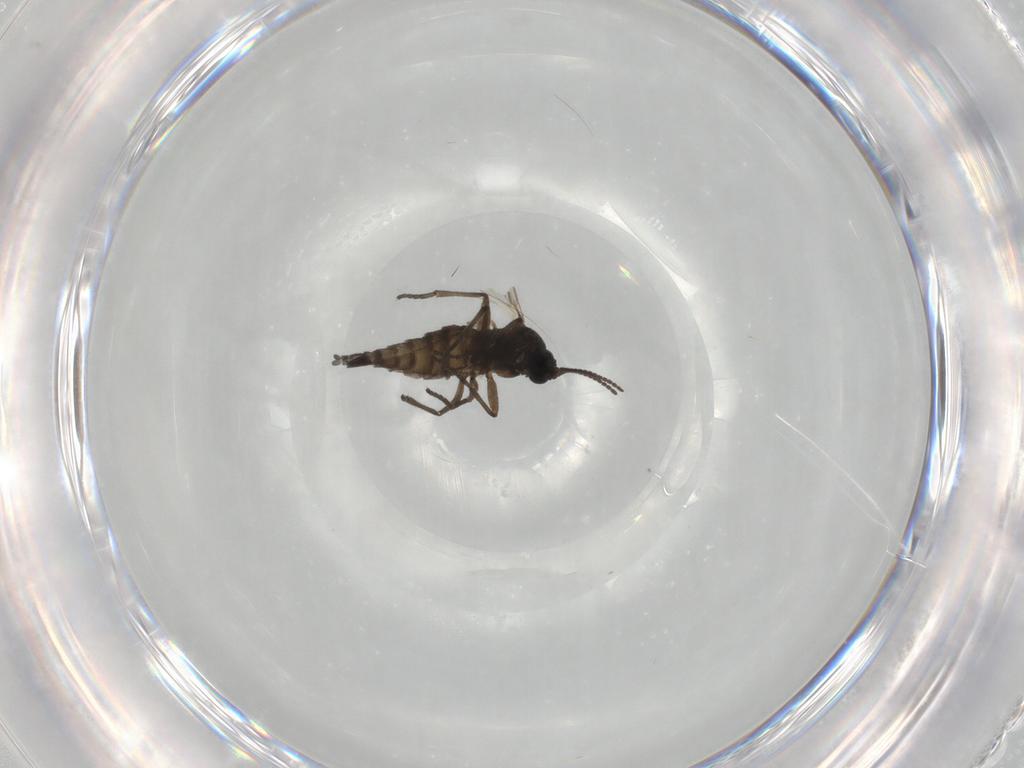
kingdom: Animalia
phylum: Arthropoda
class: Insecta
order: Diptera
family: Sciaridae
